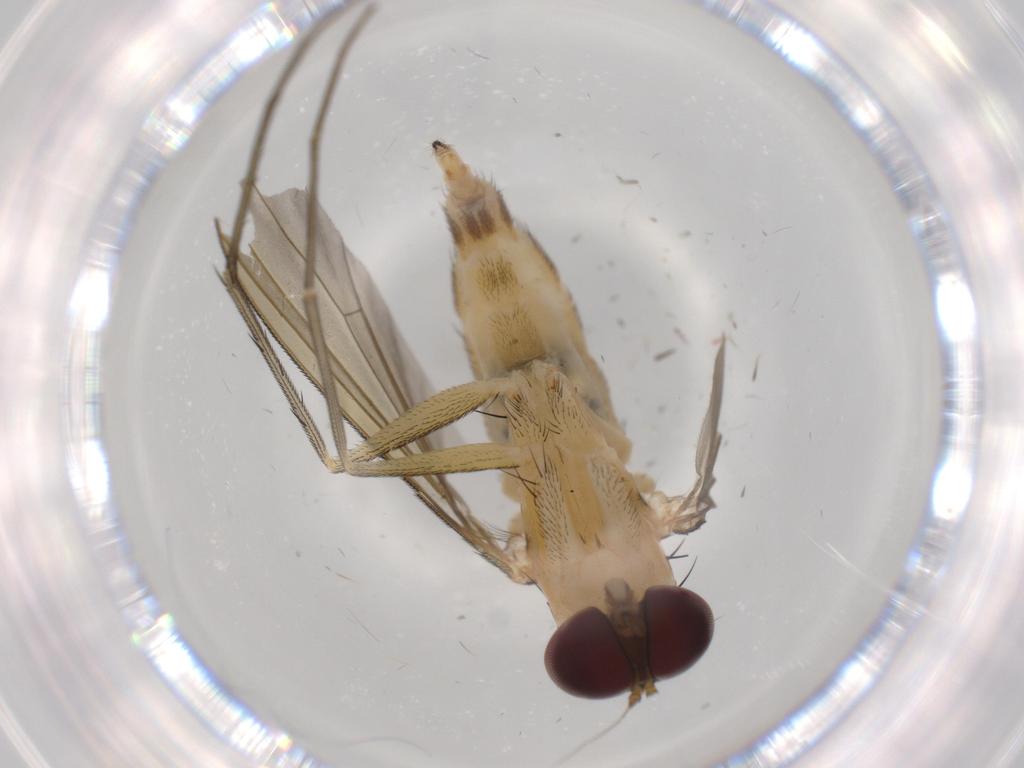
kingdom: Animalia
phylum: Arthropoda
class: Insecta
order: Diptera
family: Dolichopodidae
